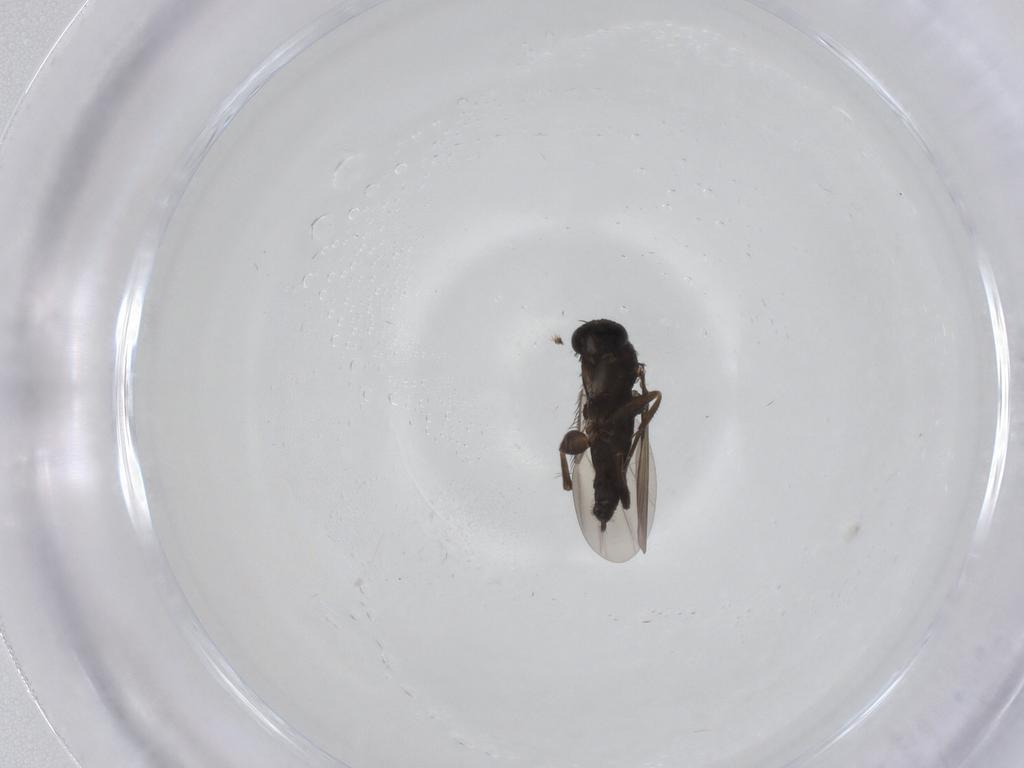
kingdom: Animalia
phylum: Arthropoda
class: Insecta
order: Diptera
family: Phoridae
